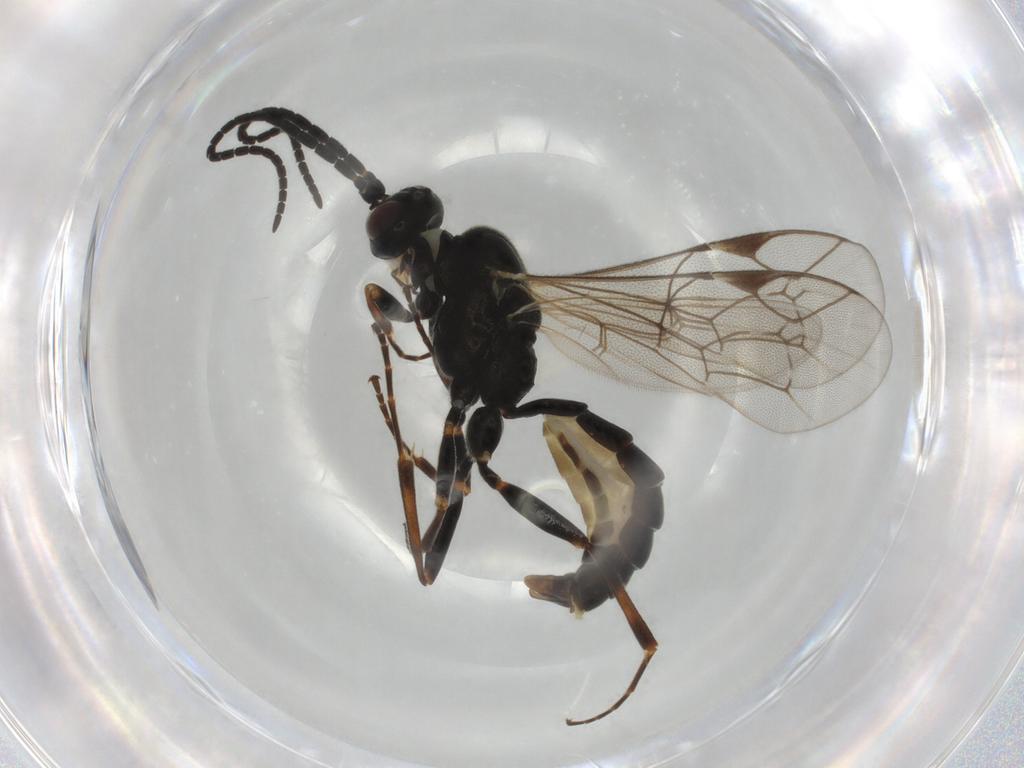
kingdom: Animalia
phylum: Arthropoda
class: Insecta
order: Hymenoptera
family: Ichneumonidae
